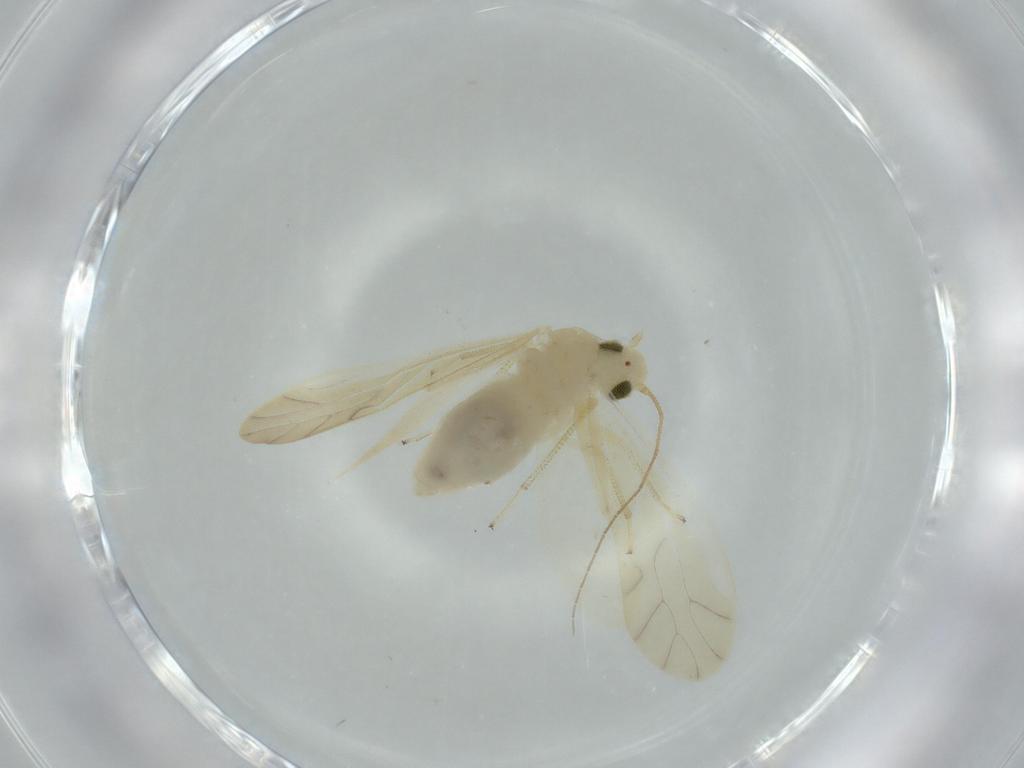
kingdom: Animalia
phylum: Arthropoda
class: Insecta
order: Psocodea
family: Caeciliusidae
